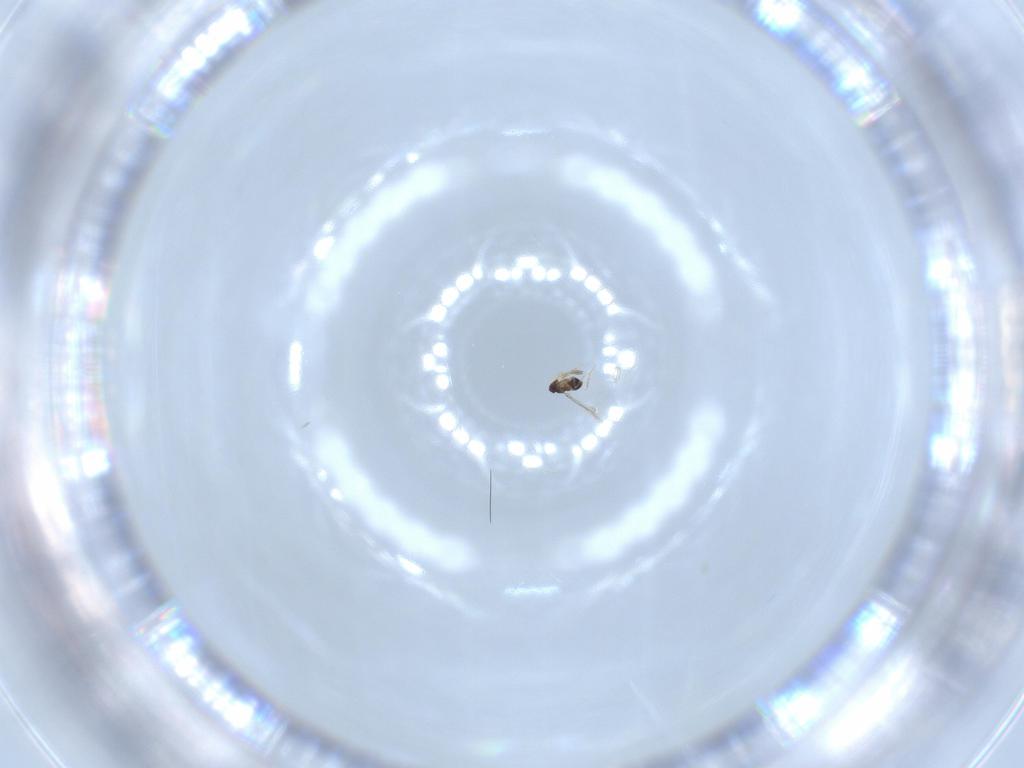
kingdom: Animalia
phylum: Arthropoda
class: Insecta
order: Hymenoptera
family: Mymaridae
